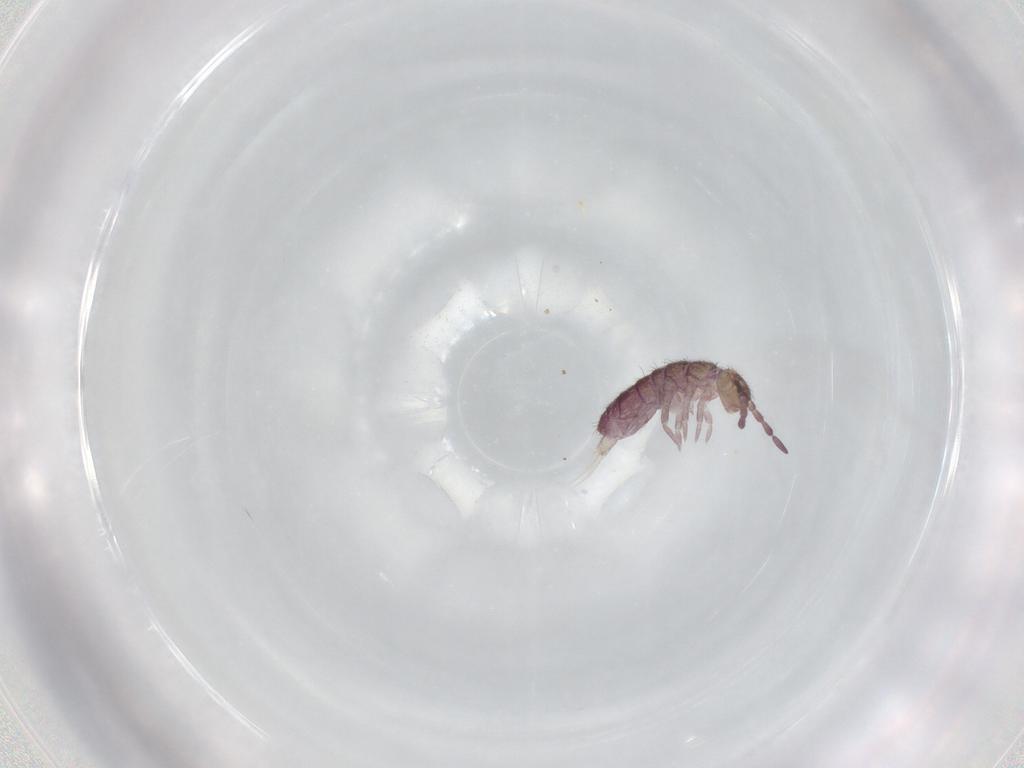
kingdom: Animalia
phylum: Arthropoda
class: Collembola
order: Entomobryomorpha
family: Isotomidae
